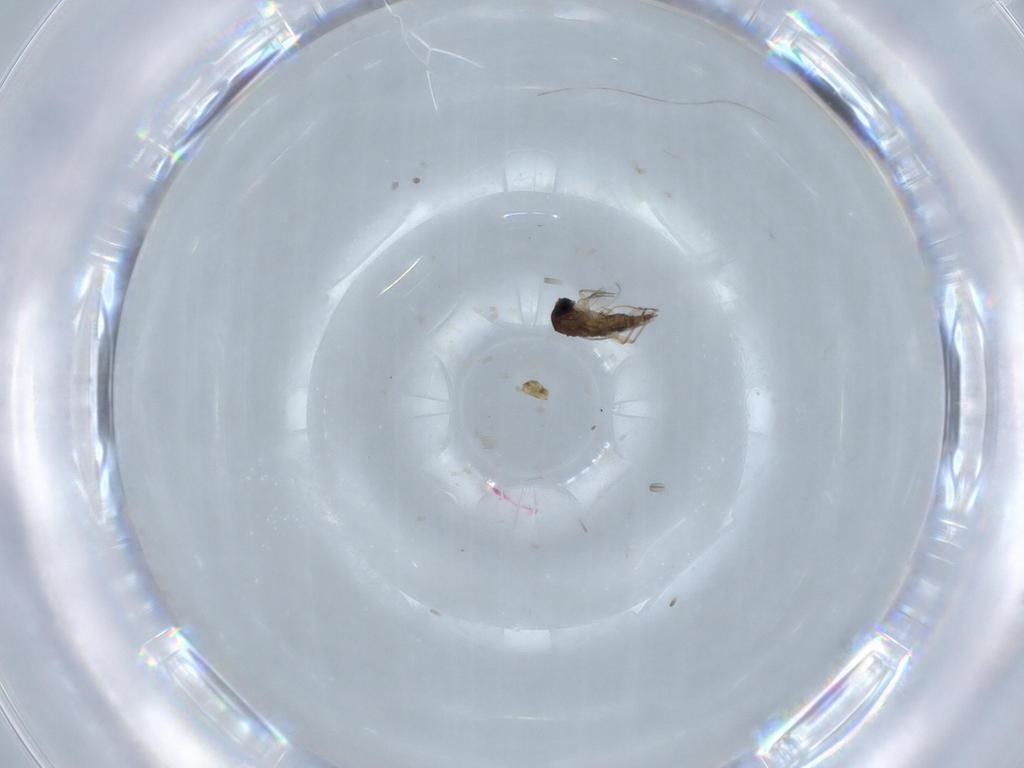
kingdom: Animalia
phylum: Arthropoda
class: Insecta
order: Diptera
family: Sciaridae
